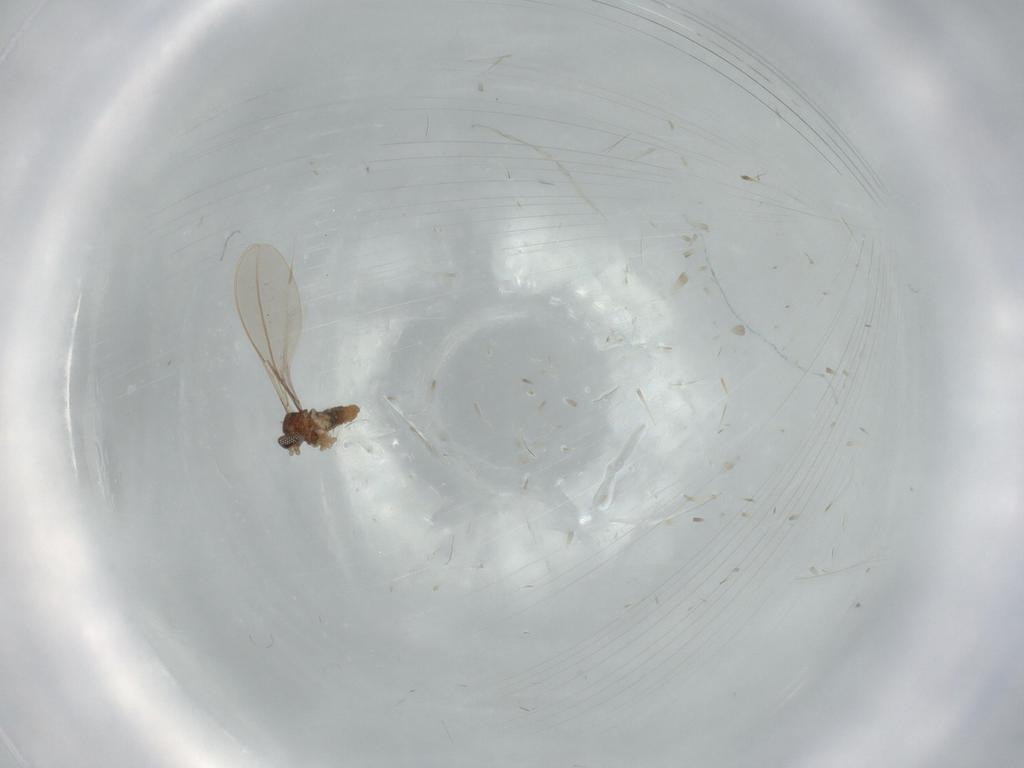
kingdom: Animalia
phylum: Arthropoda
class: Insecta
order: Diptera
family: Cecidomyiidae
